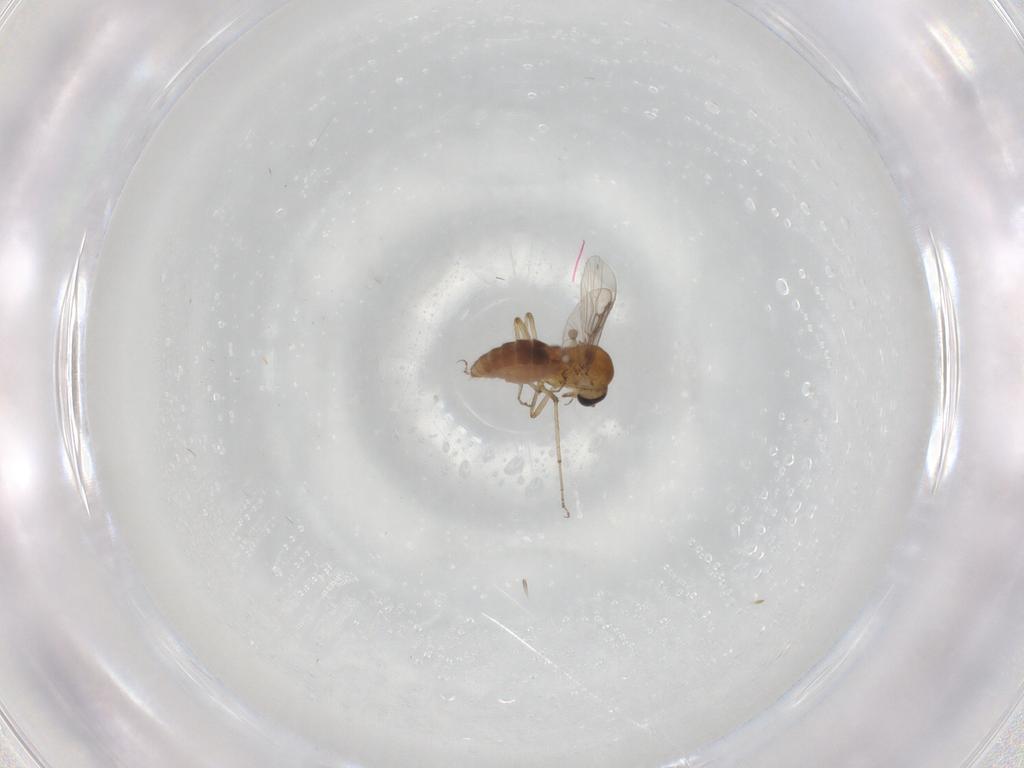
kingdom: Animalia
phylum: Arthropoda
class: Insecta
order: Diptera
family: Ceratopogonidae
